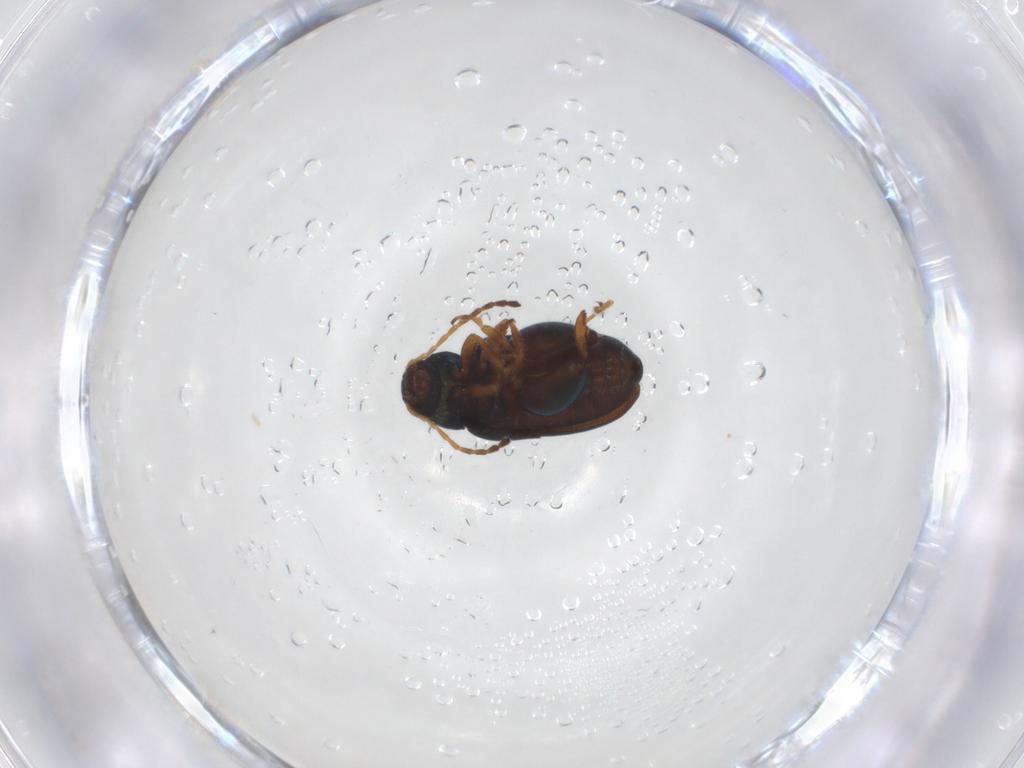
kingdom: Animalia
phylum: Arthropoda
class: Insecta
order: Coleoptera
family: Chrysomelidae
